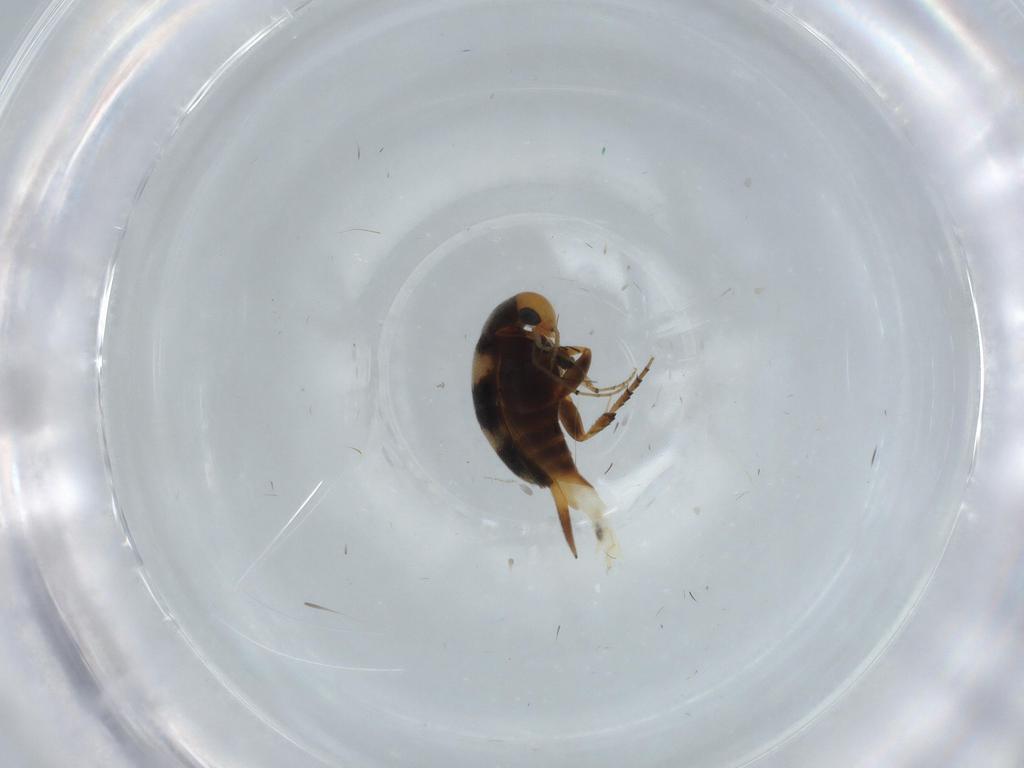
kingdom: Animalia
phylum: Arthropoda
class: Insecta
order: Coleoptera
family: Mordellidae
